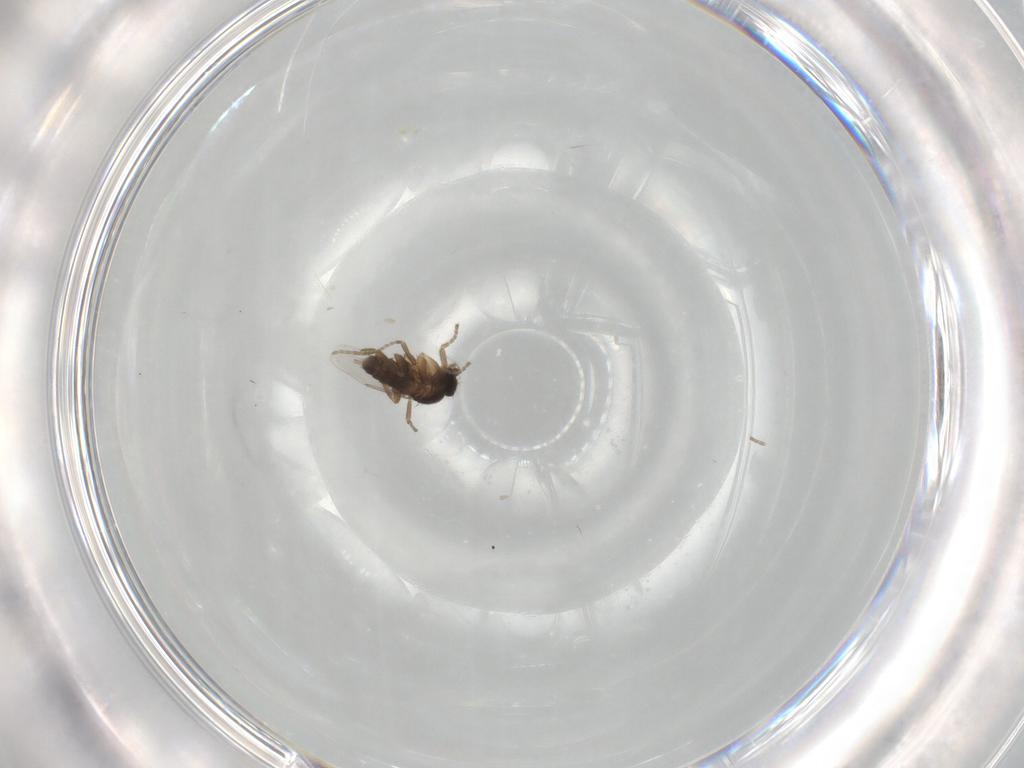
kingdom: Animalia
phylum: Arthropoda
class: Insecta
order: Diptera
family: Phoridae
